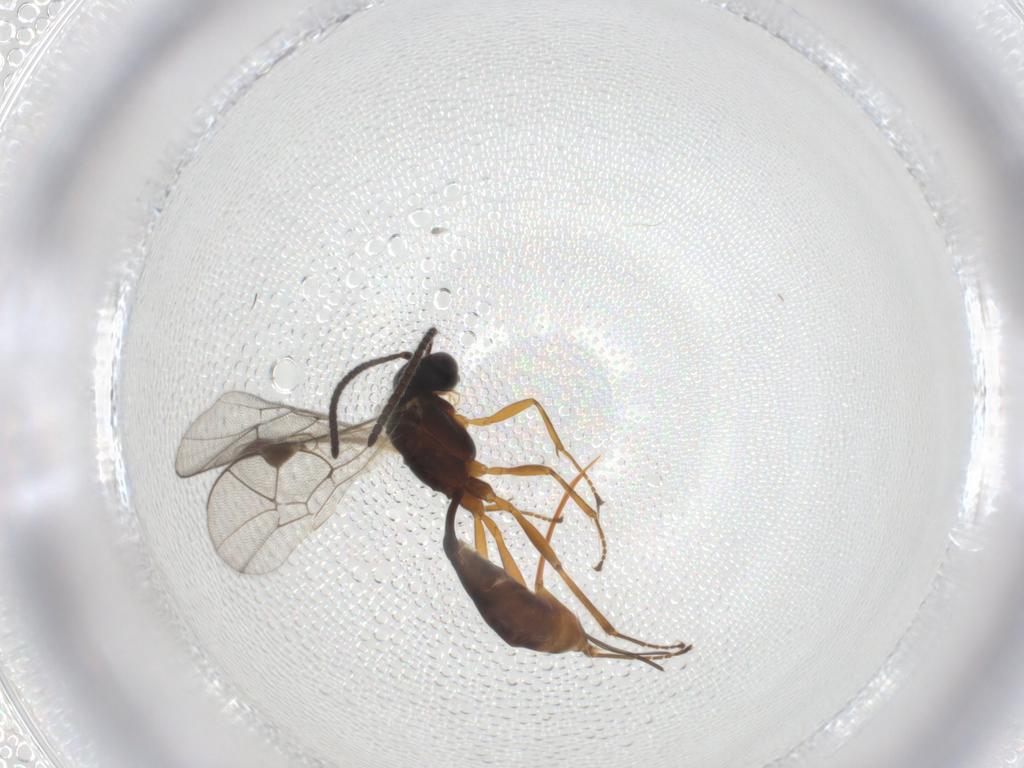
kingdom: Animalia
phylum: Arthropoda
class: Insecta
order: Hymenoptera
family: Ichneumonidae
